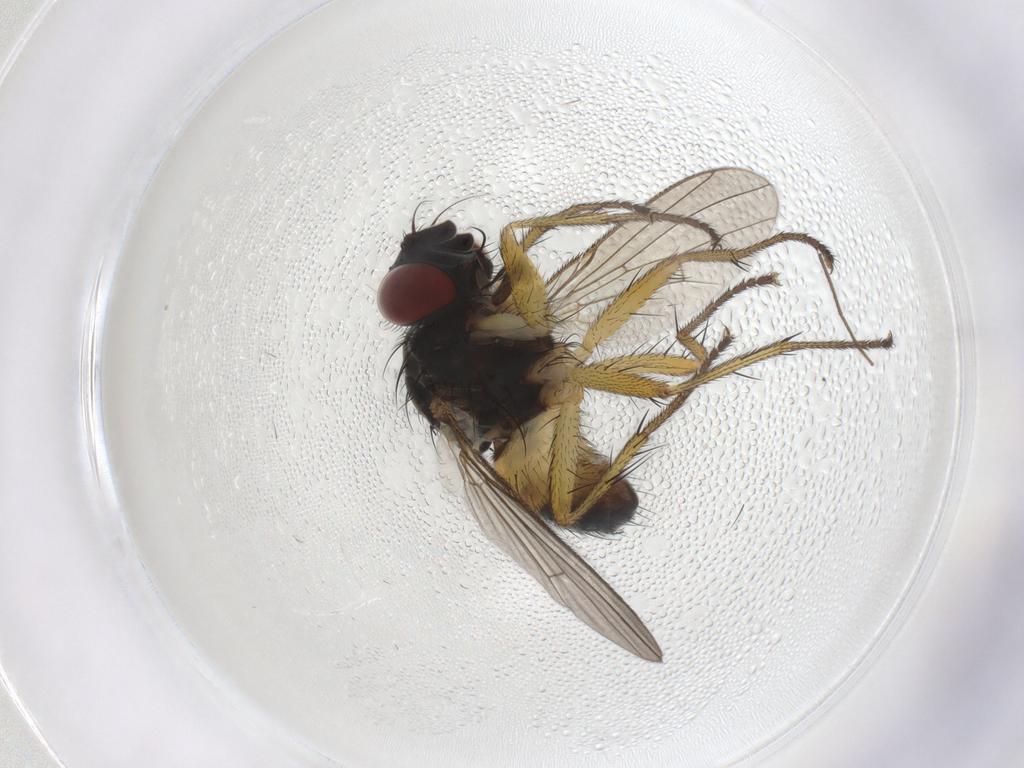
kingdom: Animalia
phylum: Arthropoda
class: Insecta
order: Diptera
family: Muscidae
